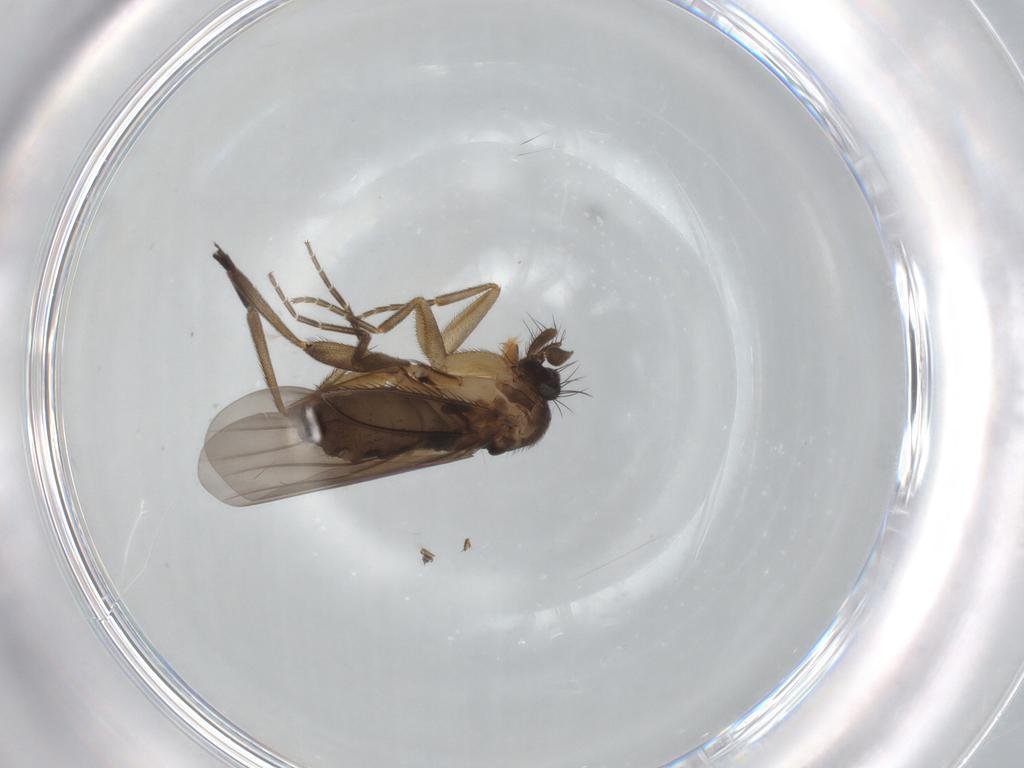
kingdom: Animalia
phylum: Arthropoda
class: Insecta
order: Diptera
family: Phoridae
